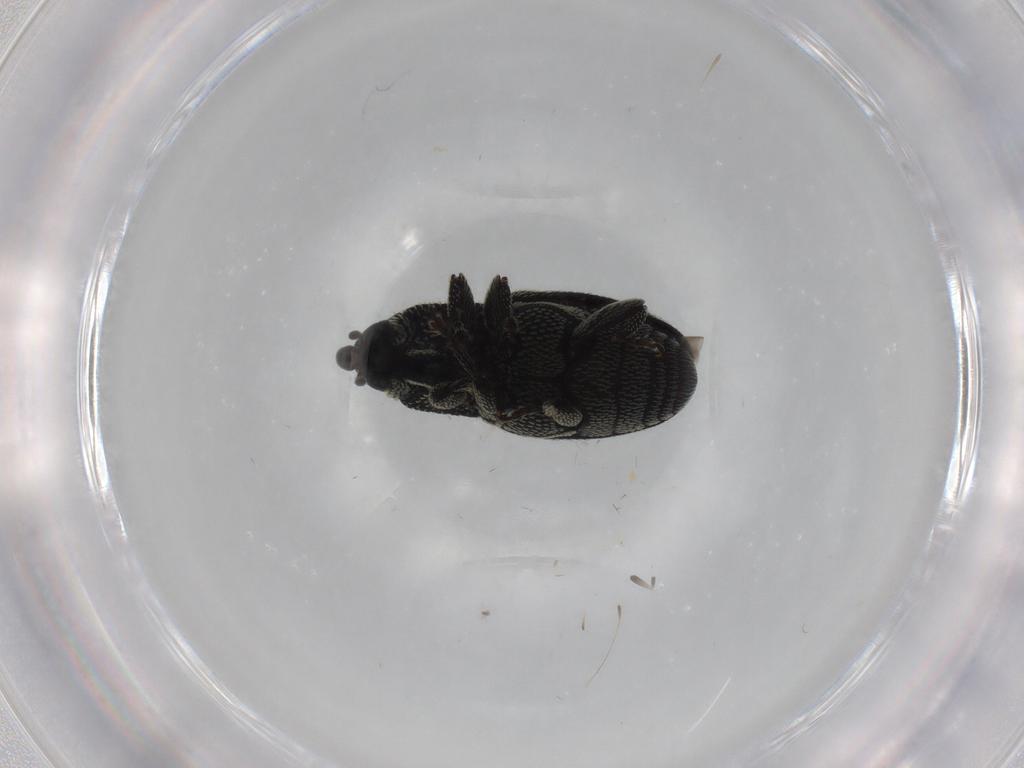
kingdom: Animalia
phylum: Arthropoda
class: Insecta
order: Coleoptera
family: Curculionidae
